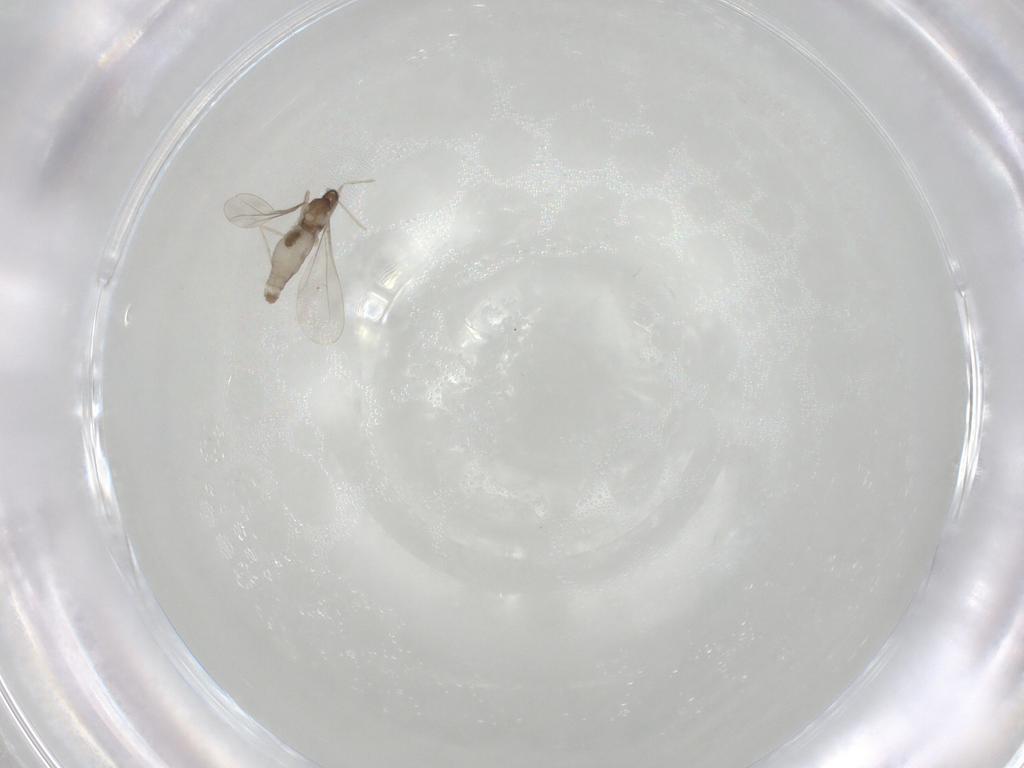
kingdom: Animalia
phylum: Arthropoda
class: Insecta
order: Diptera
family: Cecidomyiidae
